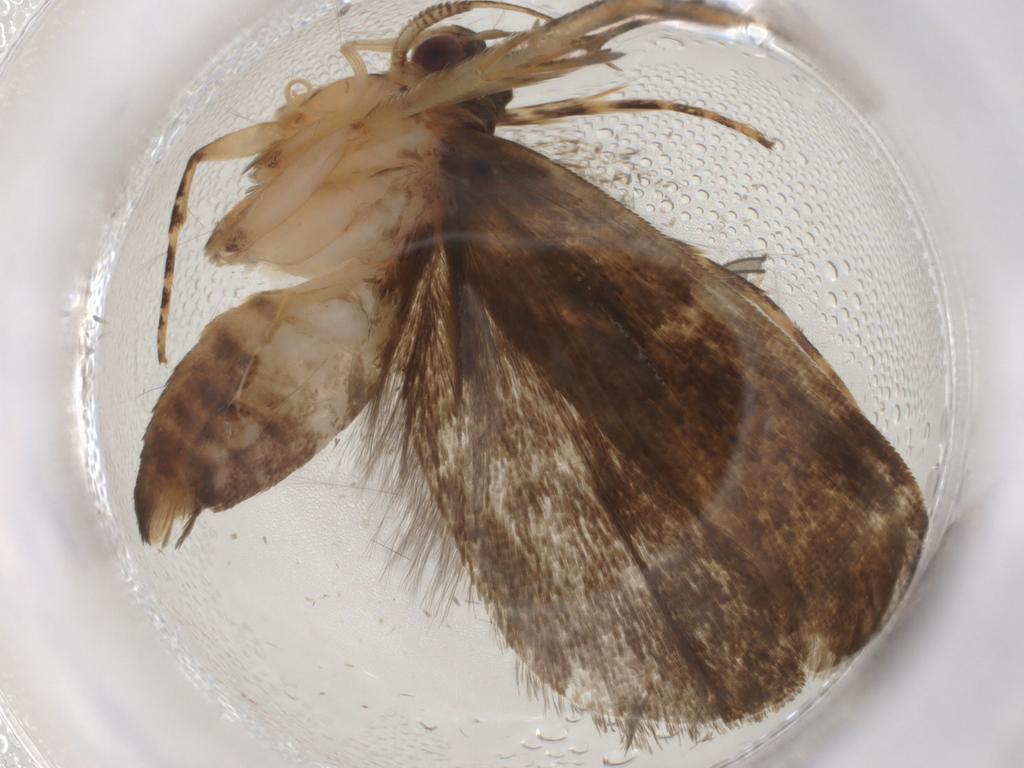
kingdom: Animalia
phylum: Arthropoda
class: Insecta
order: Lepidoptera
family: Gelechiidae
